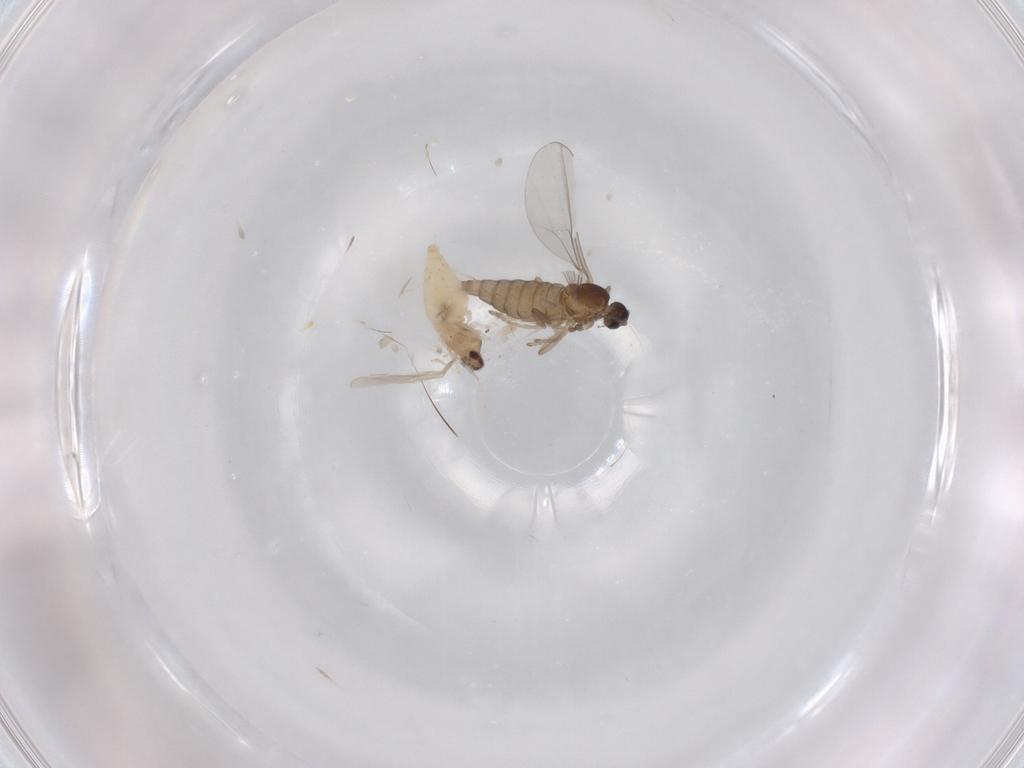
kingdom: Animalia
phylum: Arthropoda
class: Insecta
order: Diptera
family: Cecidomyiidae
